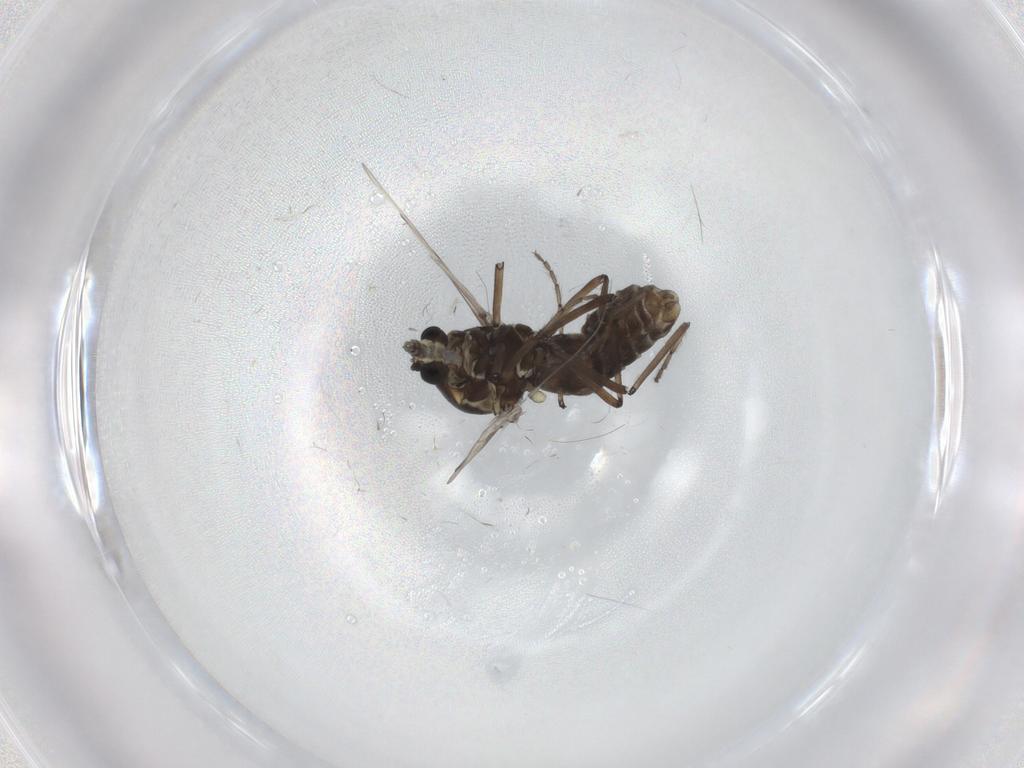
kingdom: Animalia
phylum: Arthropoda
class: Insecta
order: Diptera
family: Ceratopogonidae
